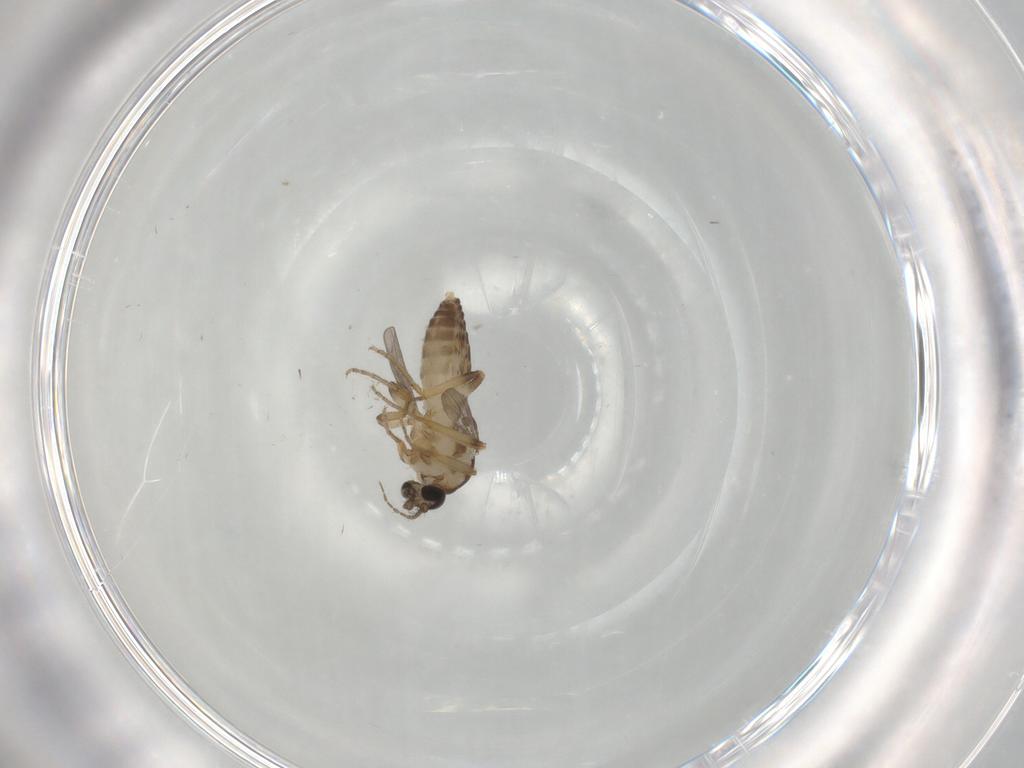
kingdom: Animalia
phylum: Arthropoda
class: Insecta
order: Diptera
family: Ceratopogonidae
